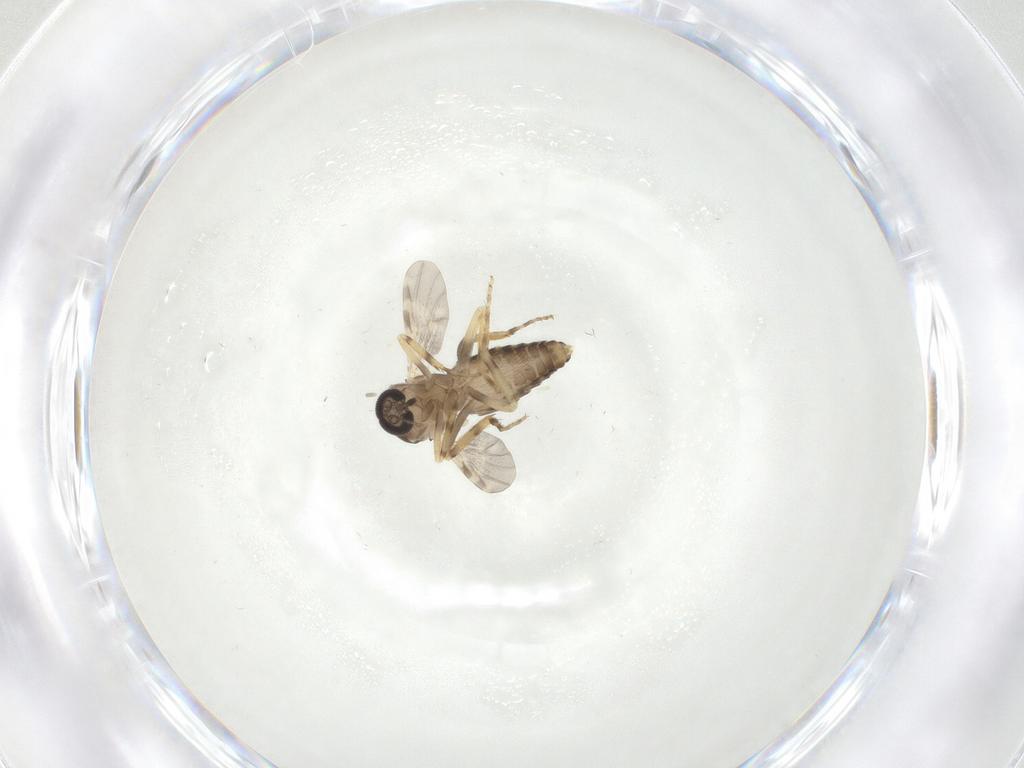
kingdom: Animalia
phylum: Arthropoda
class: Insecta
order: Diptera
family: Ceratopogonidae
